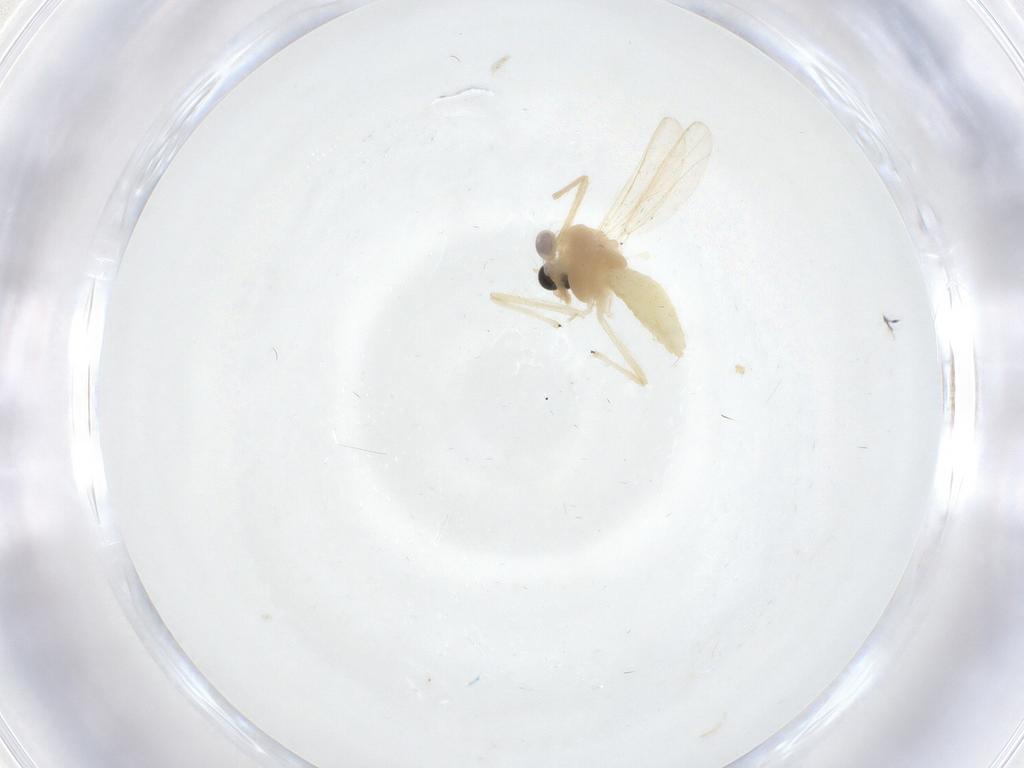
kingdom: Animalia
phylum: Arthropoda
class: Insecta
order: Diptera
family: Chironomidae
